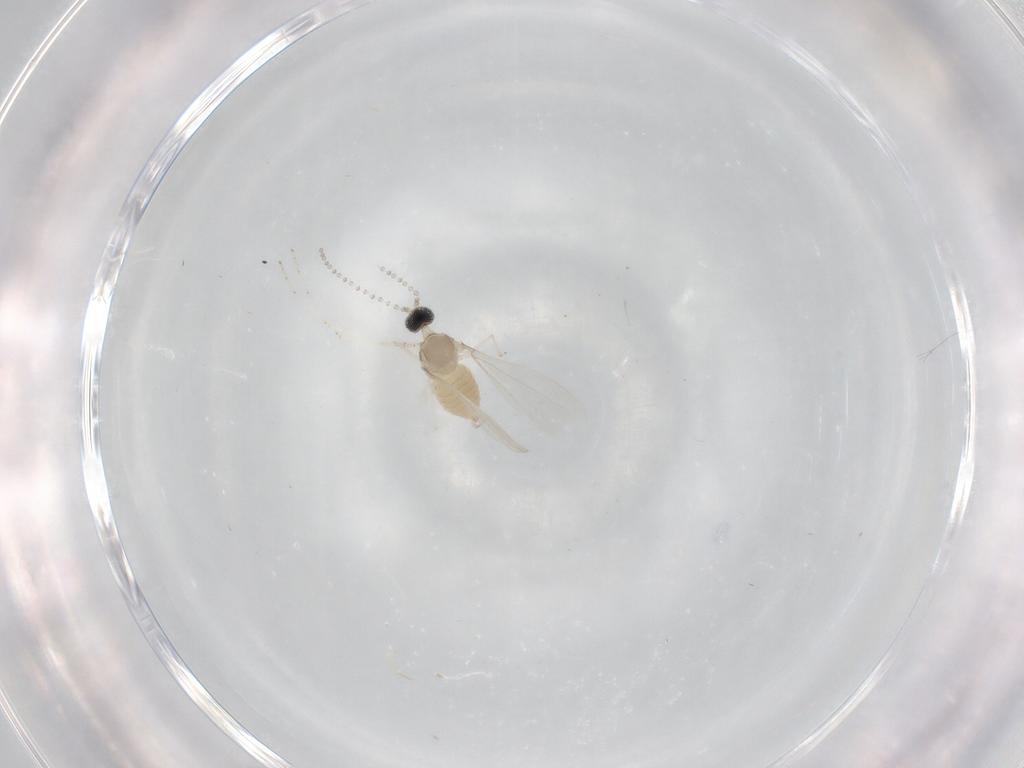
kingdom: Animalia
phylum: Arthropoda
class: Insecta
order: Diptera
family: Cecidomyiidae
